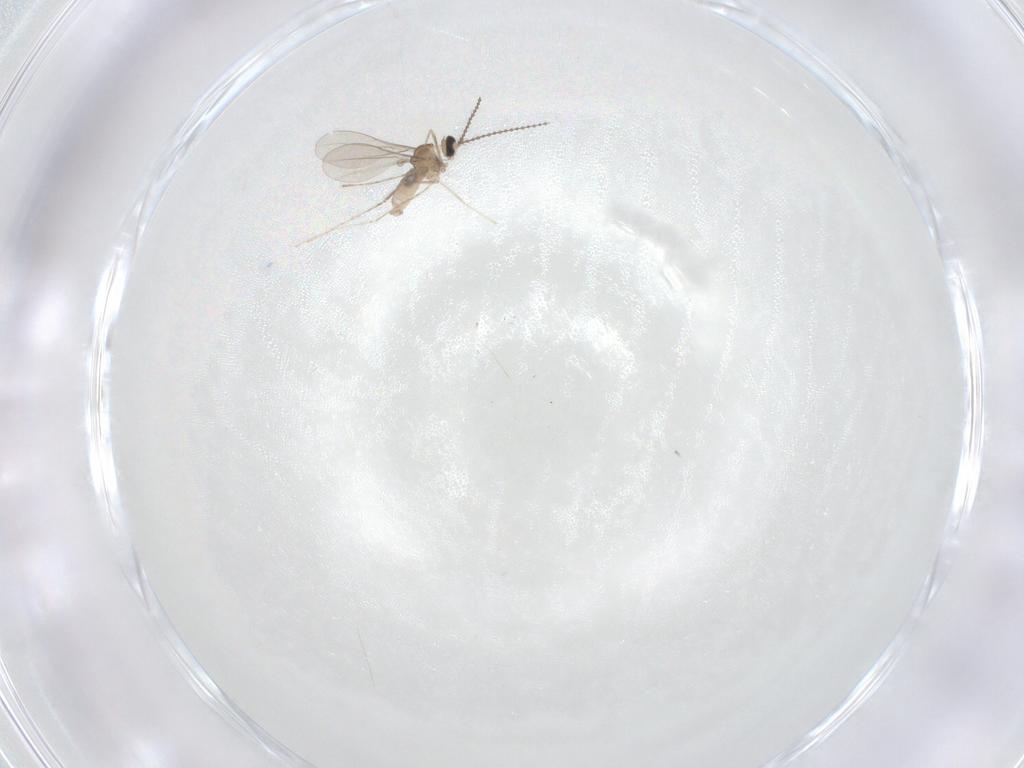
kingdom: Animalia
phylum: Arthropoda
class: Insecta
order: Diptera
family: Cecidomyiidae
